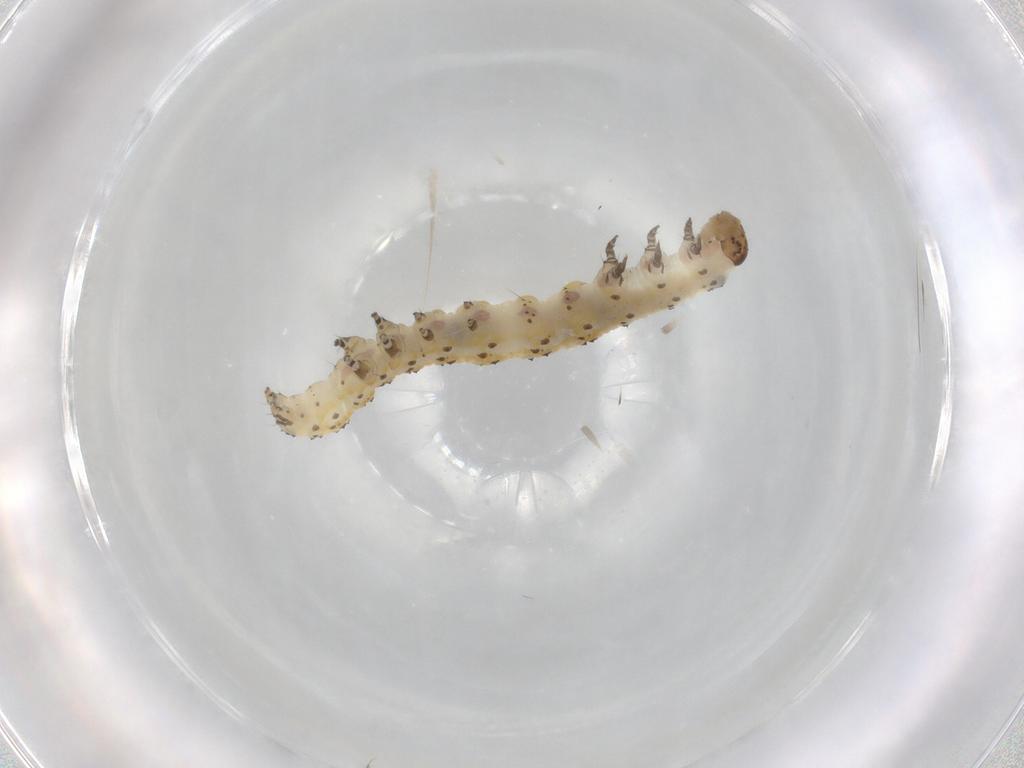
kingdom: Animalia
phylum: Arthropoda
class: Insecta
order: Lepidoptera
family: Noctuidae
